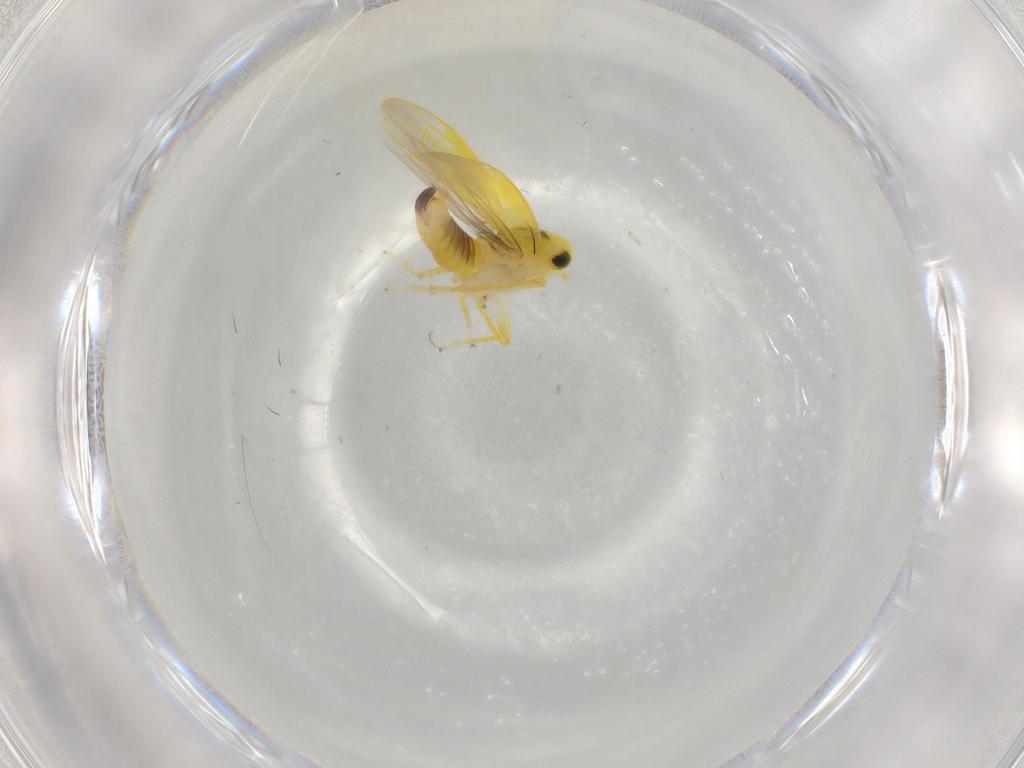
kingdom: Animalia
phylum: Arthropoda
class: Insecta
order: Hemiptera
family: Cicadellidae
